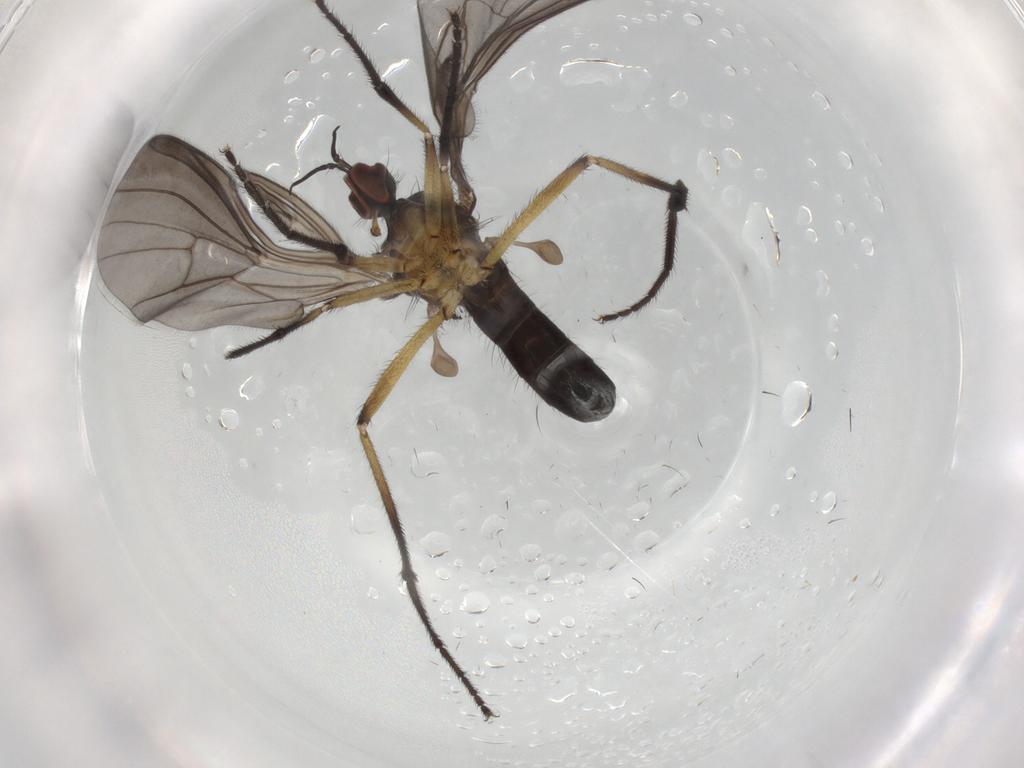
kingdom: Animalia
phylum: Arthropoda
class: Insecta
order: Diptera
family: Empididae
